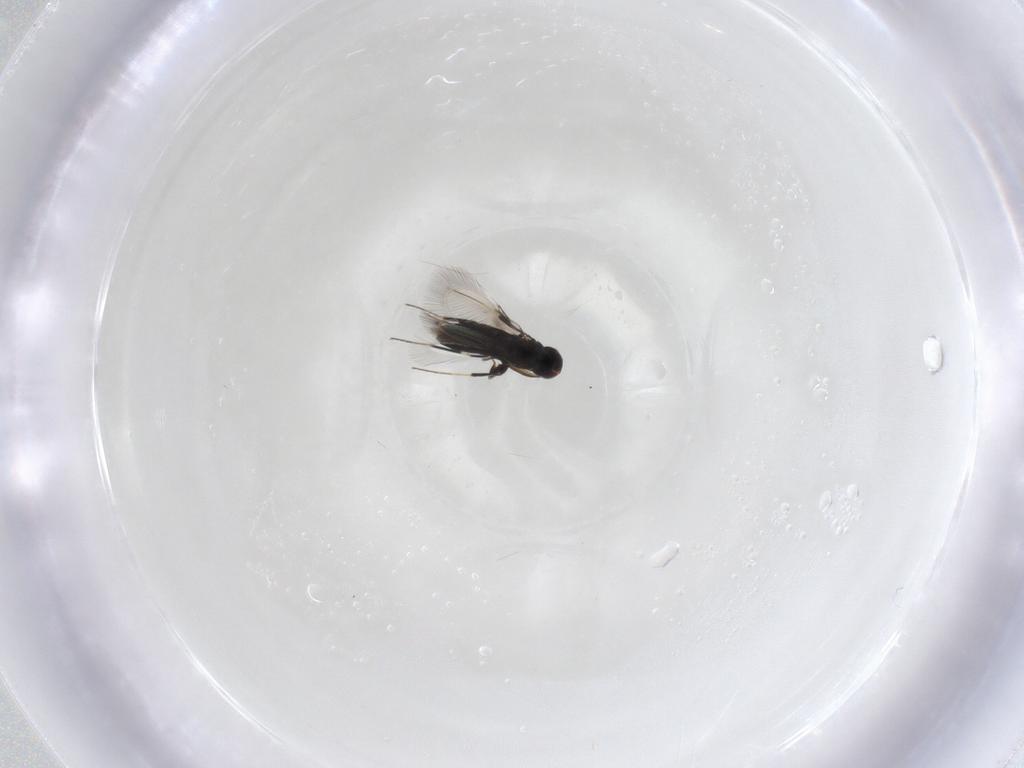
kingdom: Animalia
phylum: Arthropoda
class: Insecta
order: Hymenoptera
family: Signiphoridae
